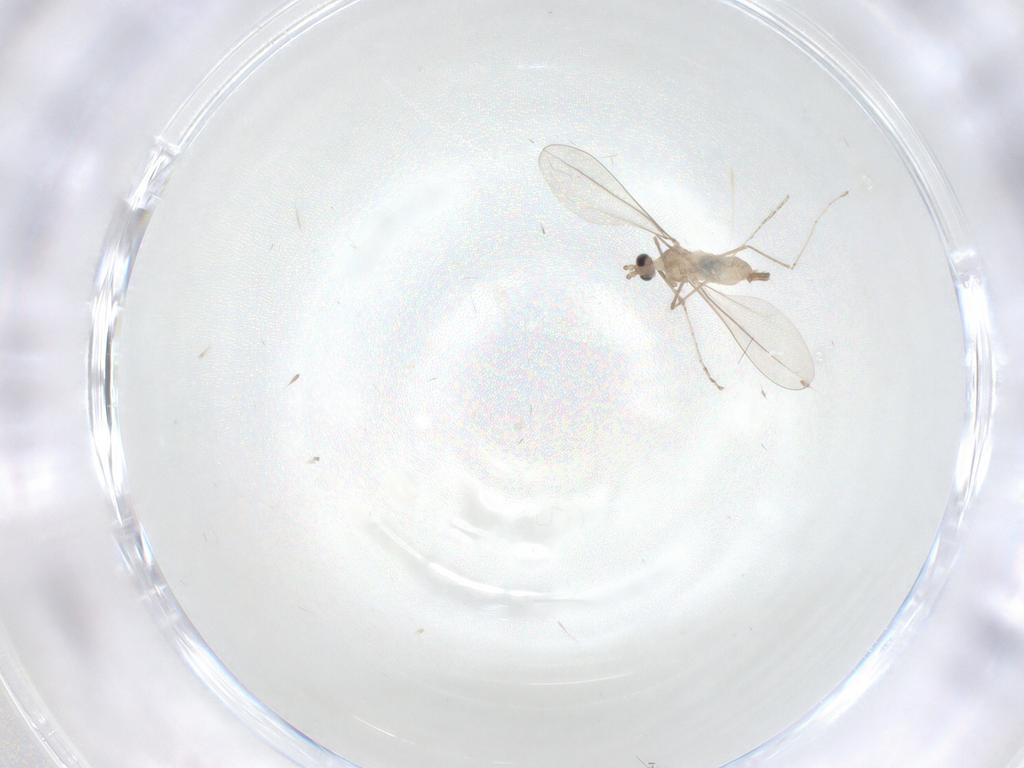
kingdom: Animalia
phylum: Arthropoda
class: Insecta
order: Diptera
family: Cecidomyiidae
